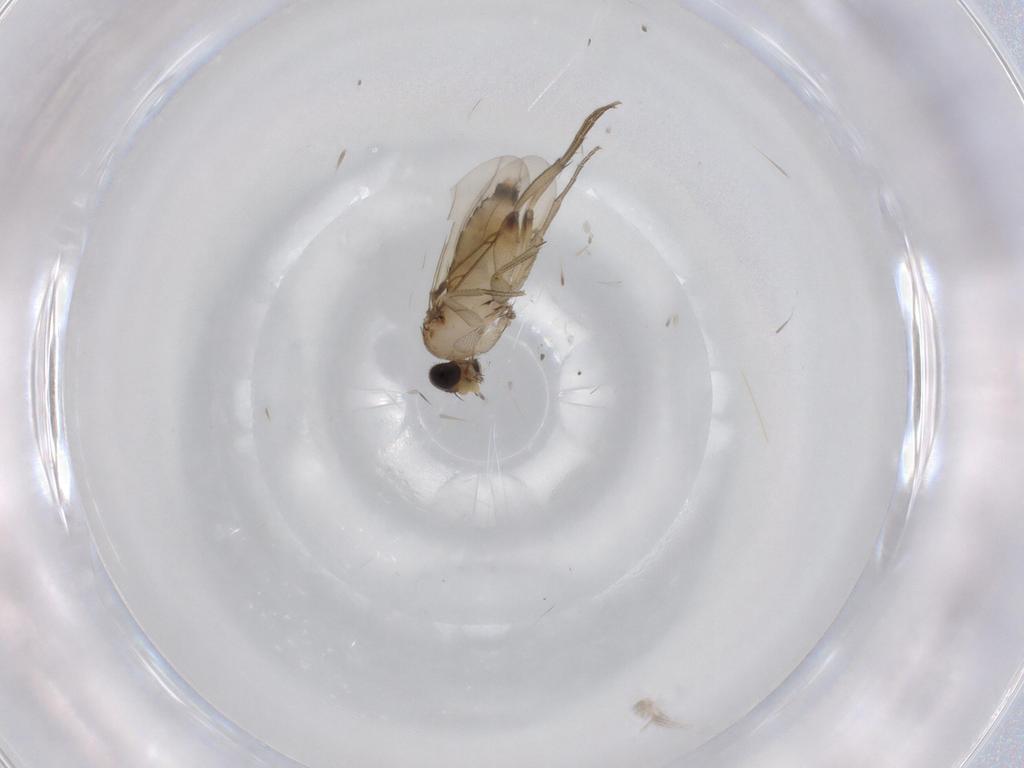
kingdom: Animalia
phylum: Arthropoda
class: Insecta
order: Diptera
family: Phoridae
